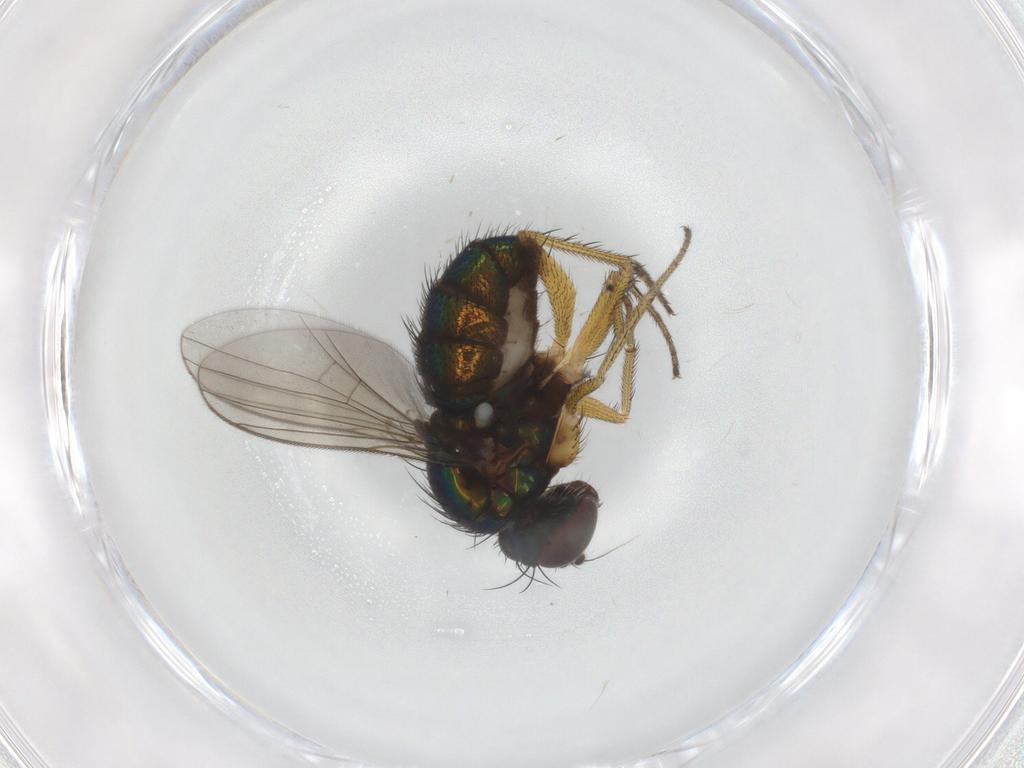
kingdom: Animalia
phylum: Arthropoda
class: Insecta
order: Diptera
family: Dolichopodidae
